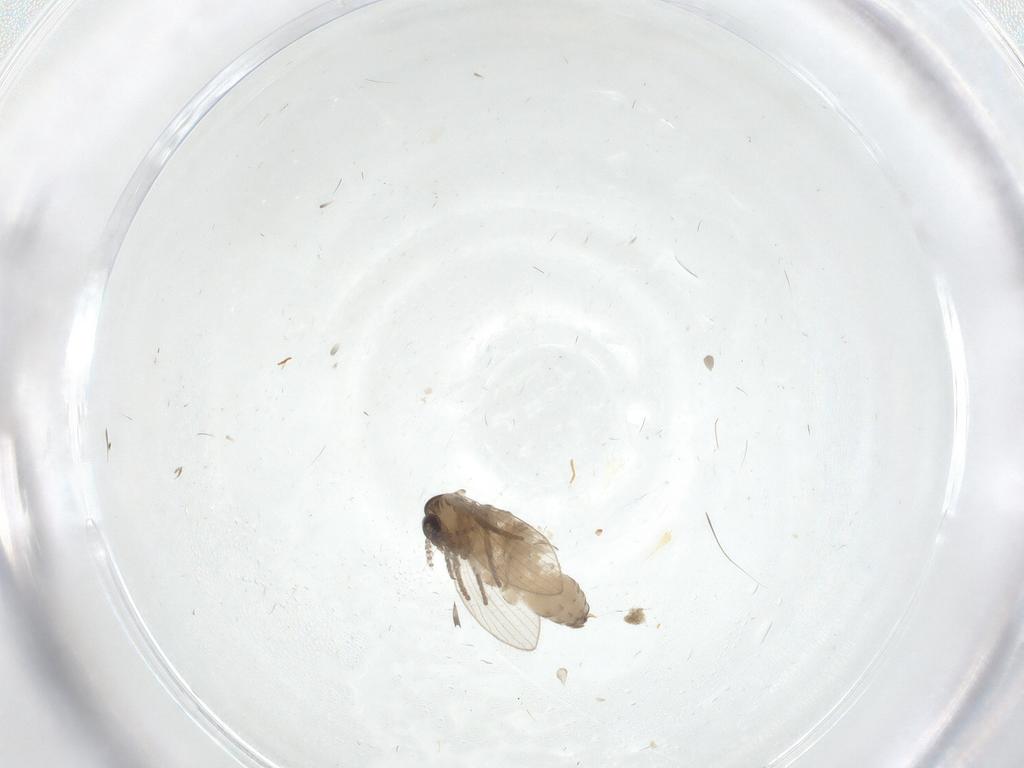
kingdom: Animalia
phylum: Arthropoda
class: Insecta
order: Diptera
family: Psychodidae
